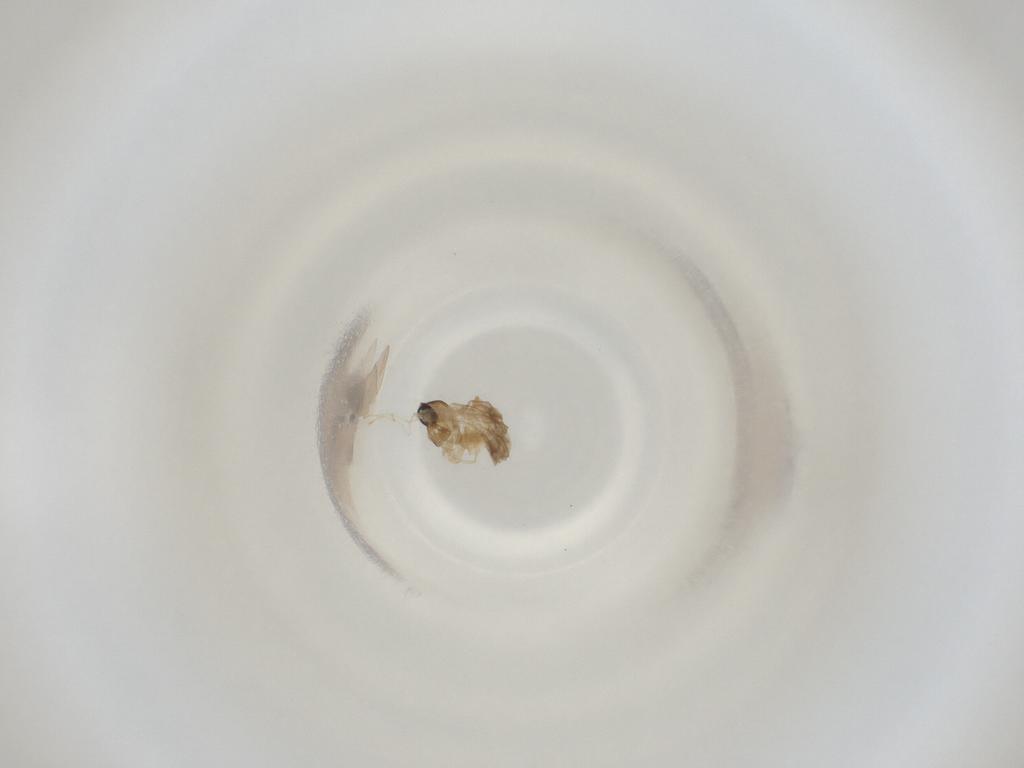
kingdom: Animalia
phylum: Arthropoda
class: Insecta
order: Diptera
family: Cecidomyiidae
